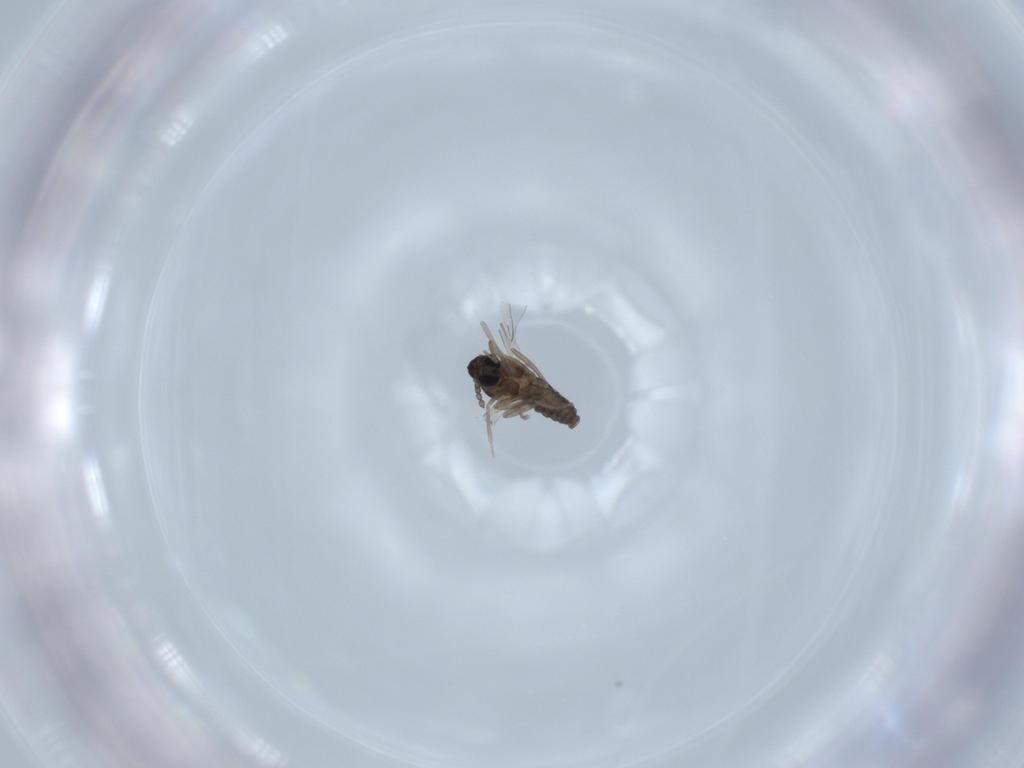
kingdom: Animalia
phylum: Arthropoda
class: Insecta
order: Diptera
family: Cecidomyiidae
